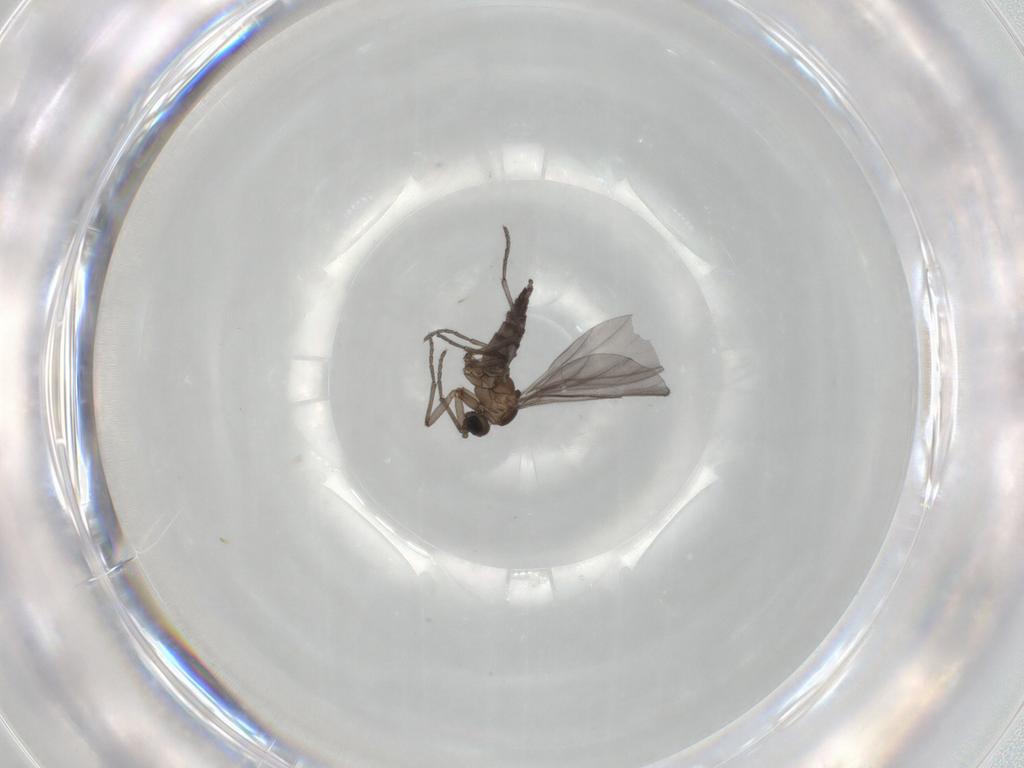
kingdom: Animalia
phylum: Arthropoda
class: Insecta
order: Diptera
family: Sciaridae
